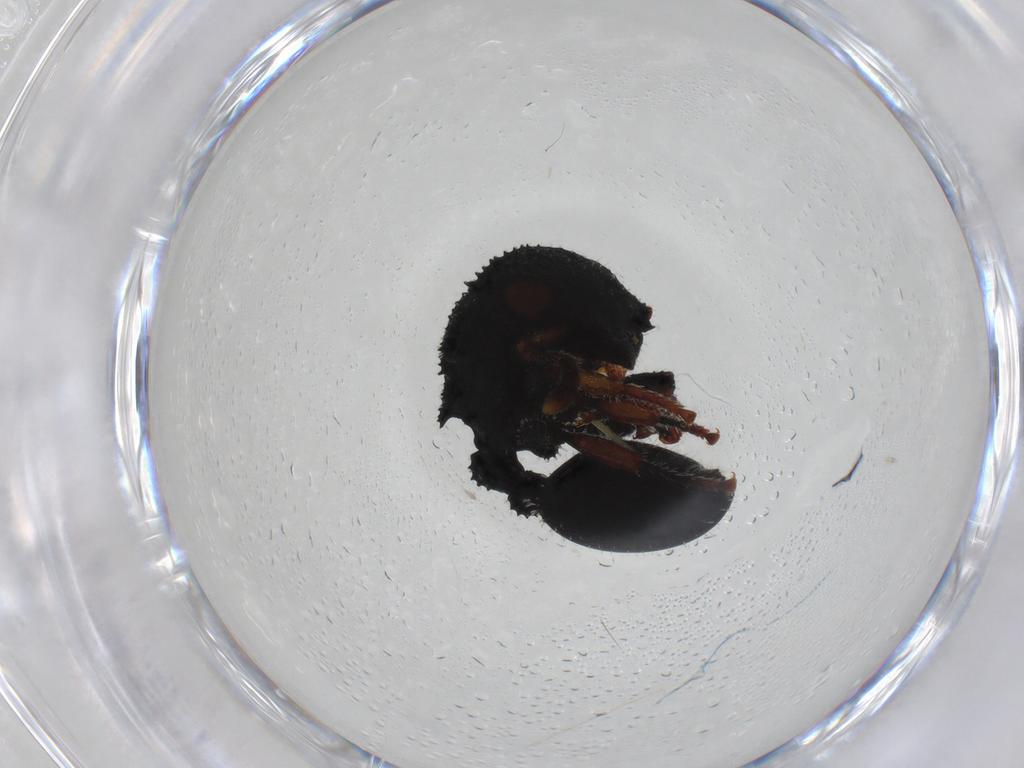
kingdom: Animalia
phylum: Arthropoda
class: Insecta
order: Hymenoptera
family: Formicidae
